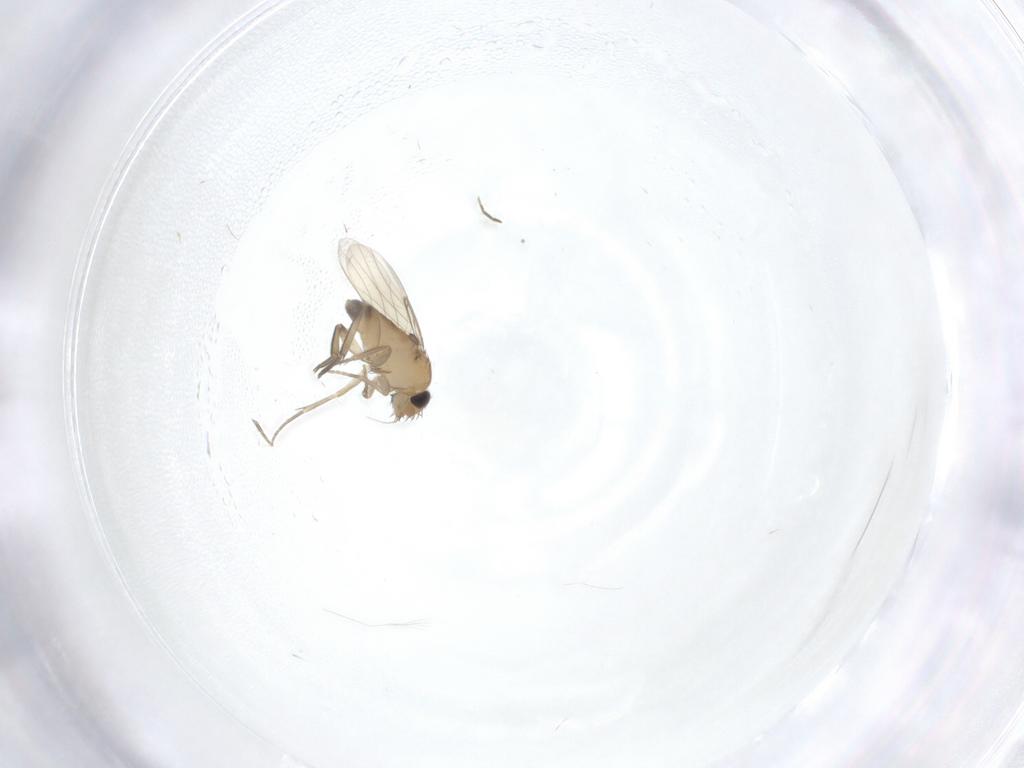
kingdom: Animalia
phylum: Arthropoda
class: Insecta
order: Diptera
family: Phoridae
